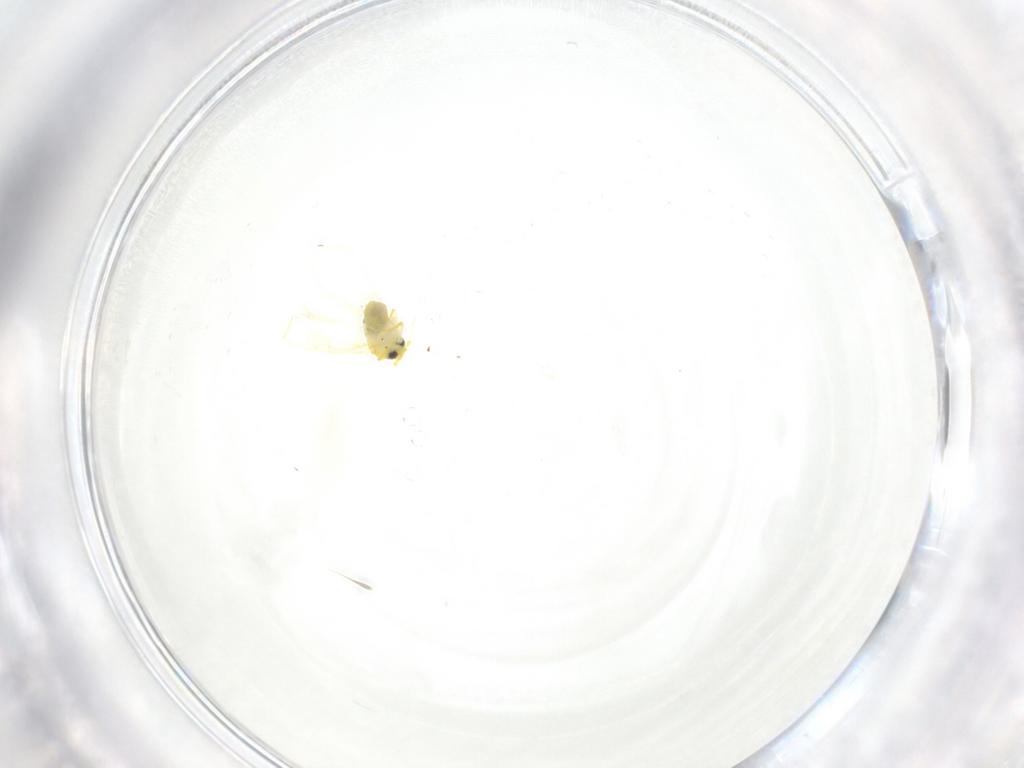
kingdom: Animalia
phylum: Arthropoda
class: Insecta
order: Hemiptera
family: Aleyrodidae
